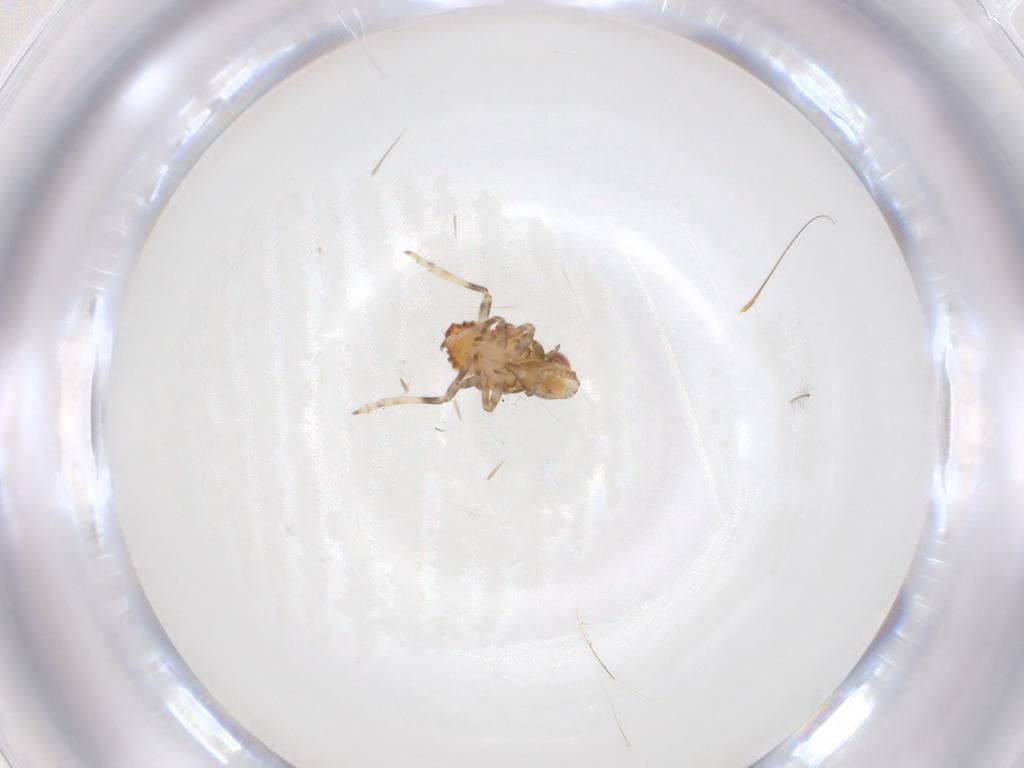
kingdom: Animalia
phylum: Arthropoda
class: Insecta
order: Hemiptera
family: Tropiduchidae
